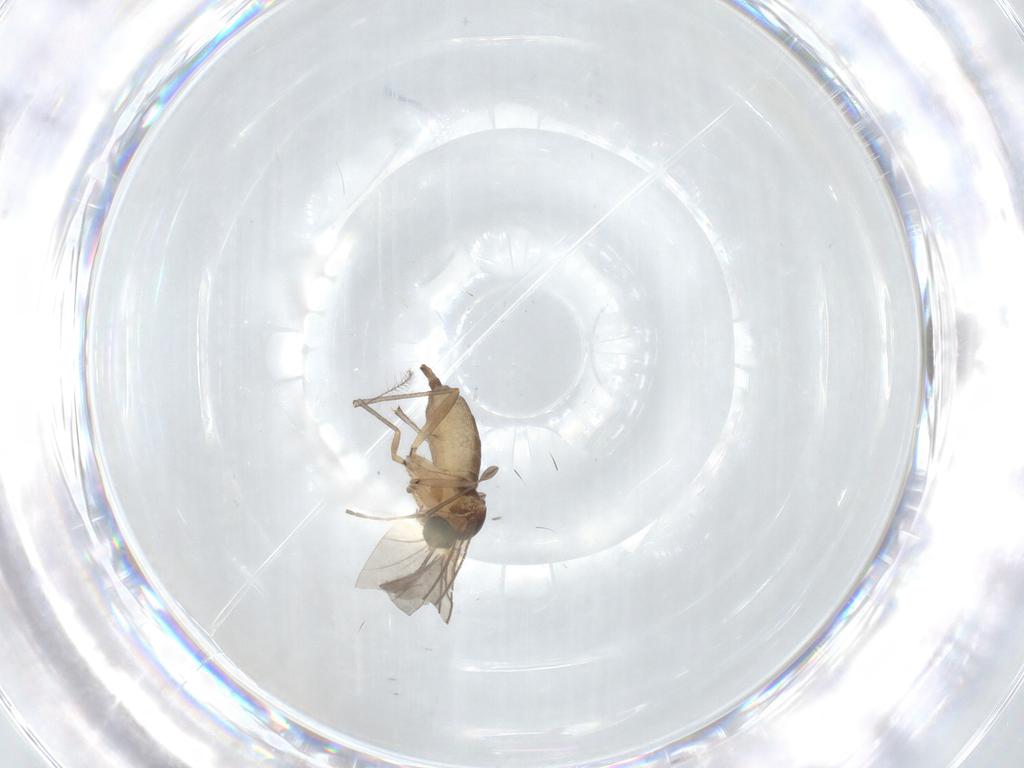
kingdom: Animalia
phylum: Arthropoda
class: Insecta
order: Diptera
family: Sciaridae
